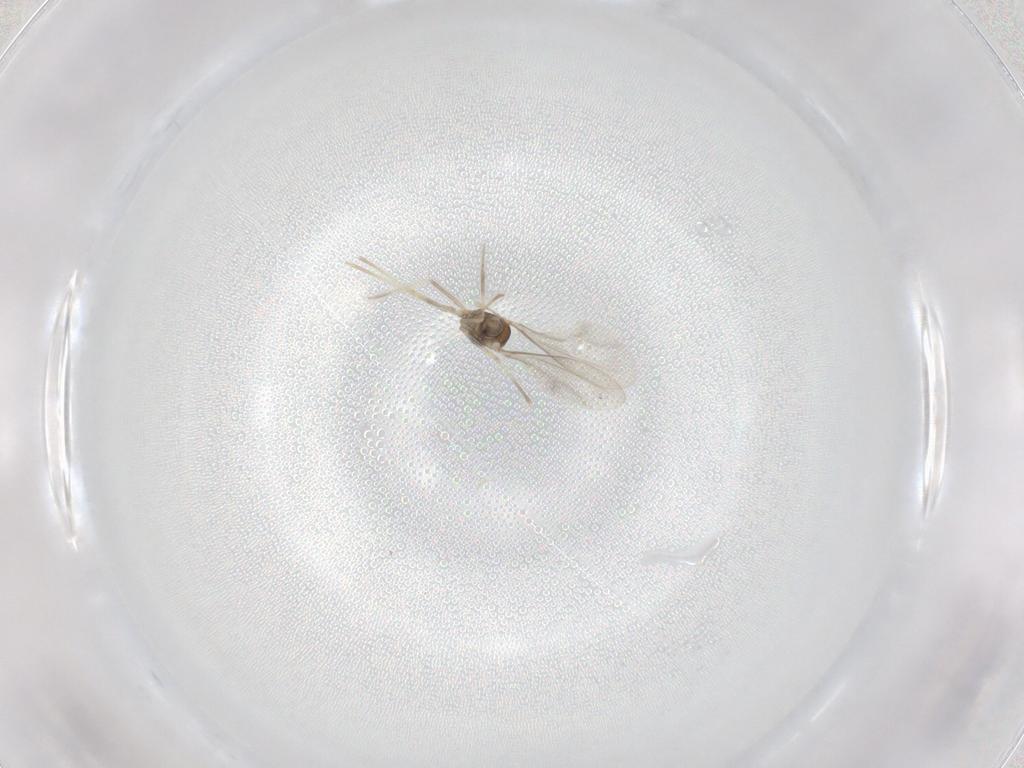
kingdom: Animalia
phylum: Arthropoda
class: Insecta
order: Diptera
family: Cecidomyiidae
